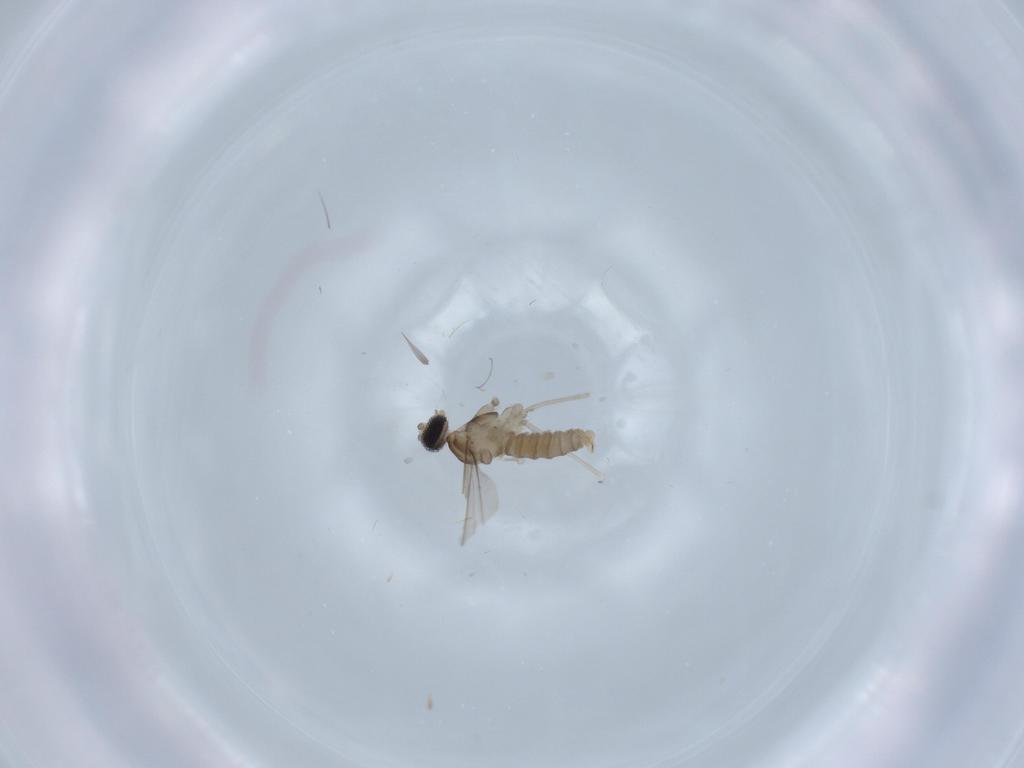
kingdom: Animalia
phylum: Arthropoda
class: Insecta
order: Diptera
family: Cecidomyiidae
